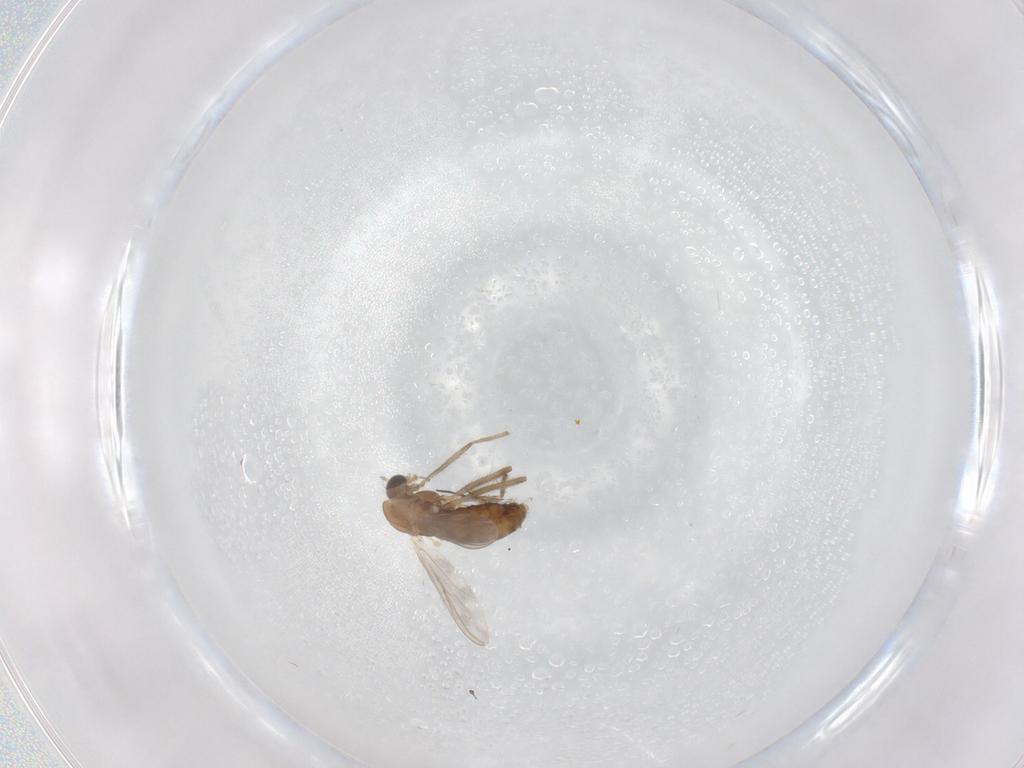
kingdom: Animalia
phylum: Arthropoda
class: Insecta
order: Diptera
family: Chironomidae
